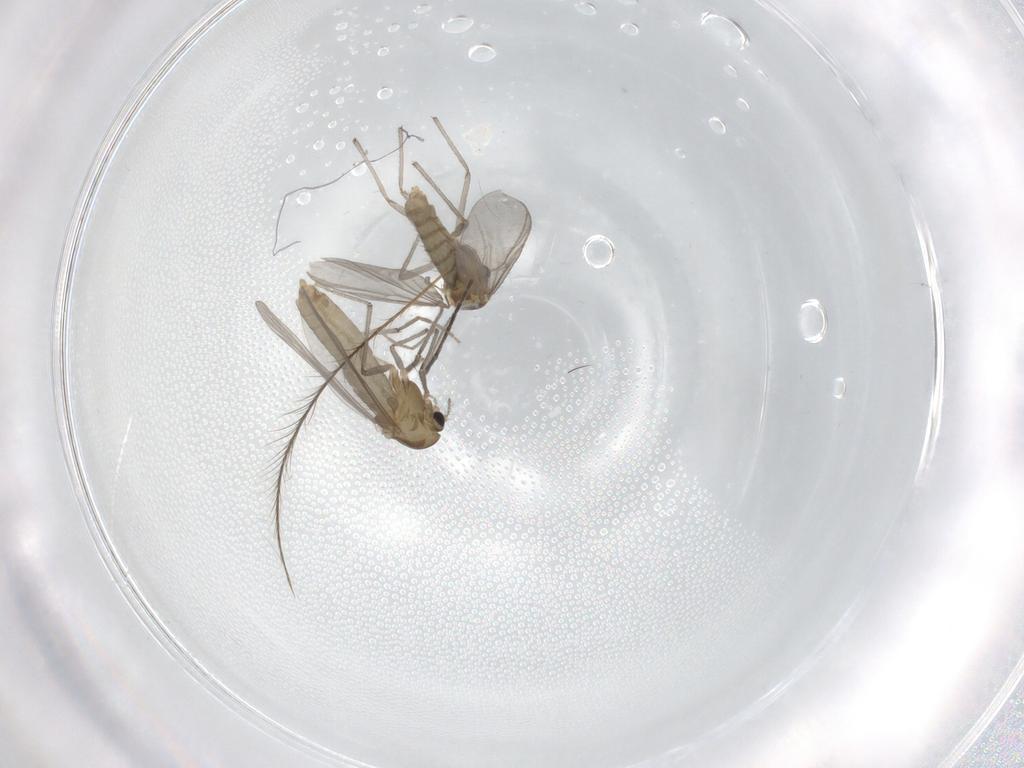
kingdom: Animalia
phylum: Arthropoda
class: Insecta
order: Diptera
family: Chironomidae
